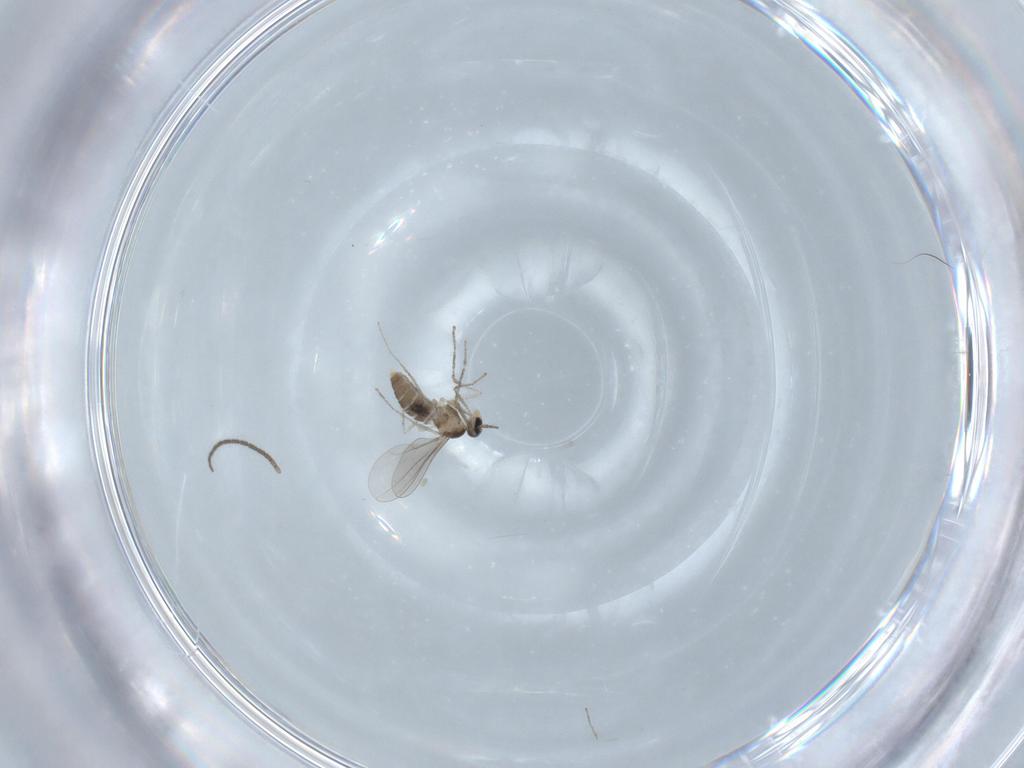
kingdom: Animalia
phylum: Arthropoda
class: Insecta
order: Diptera
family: Sciaridae
